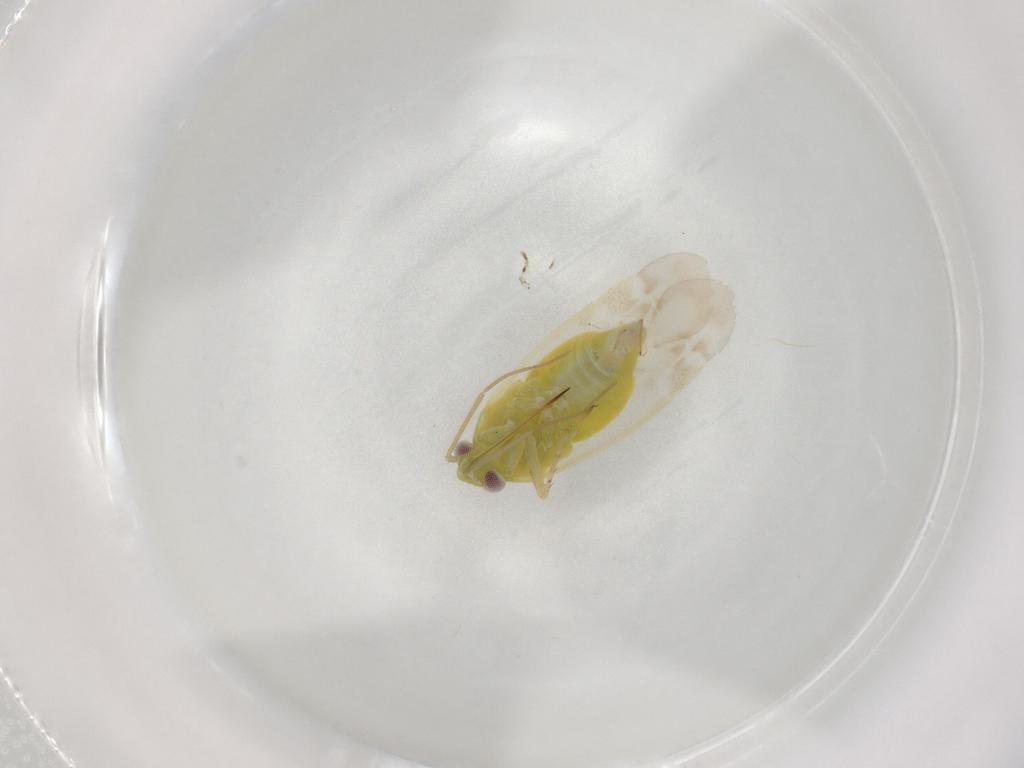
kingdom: Animalia
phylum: Arthropoda
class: Insecta
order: Hemiptera
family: Miridae
